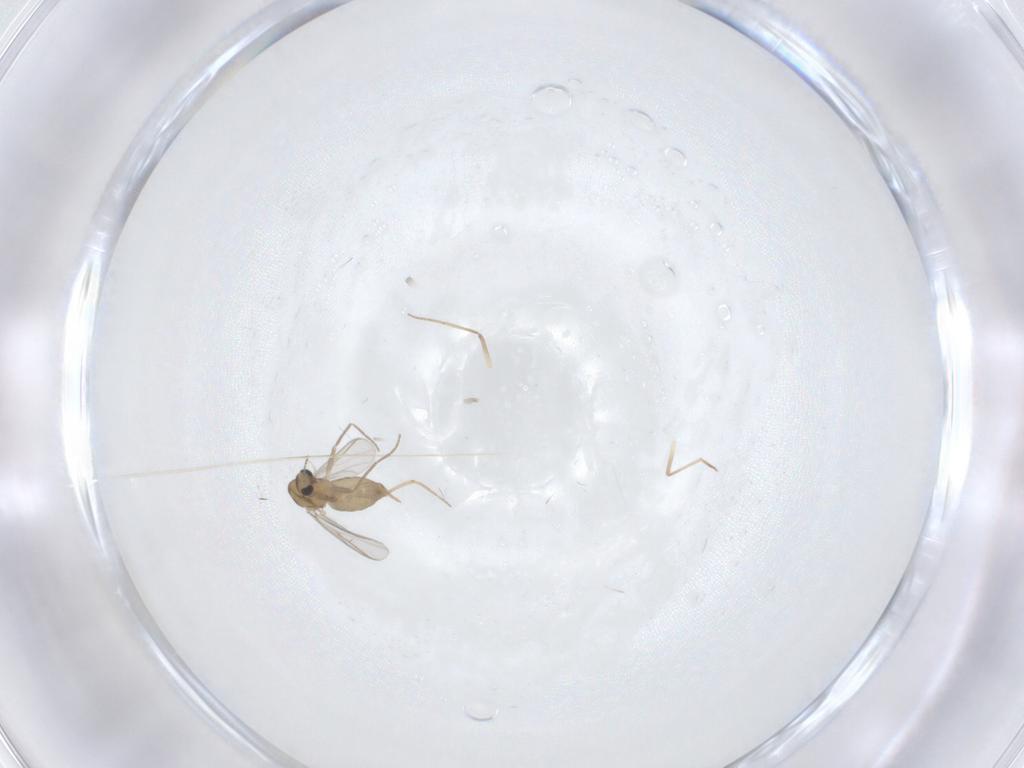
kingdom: Animalia
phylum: Arthropoda
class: Insecta
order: Diptera
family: Chironomidae
